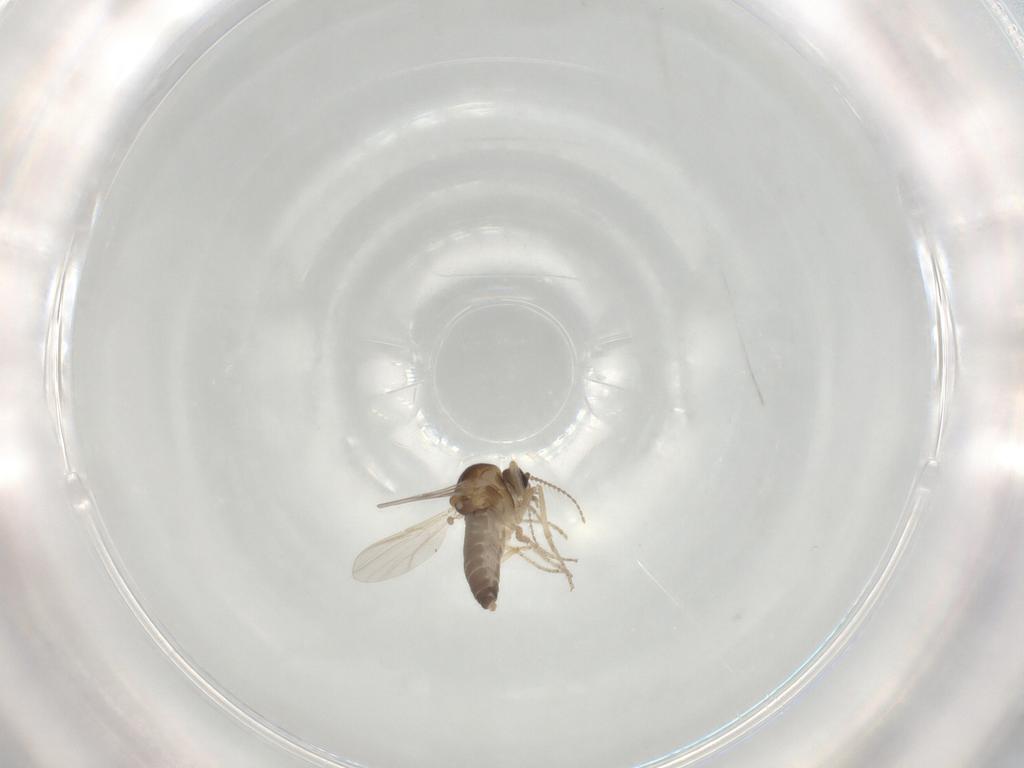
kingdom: Animalia
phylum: Arthropoda
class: Insecta
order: Diptera
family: Ceratopogonidae
